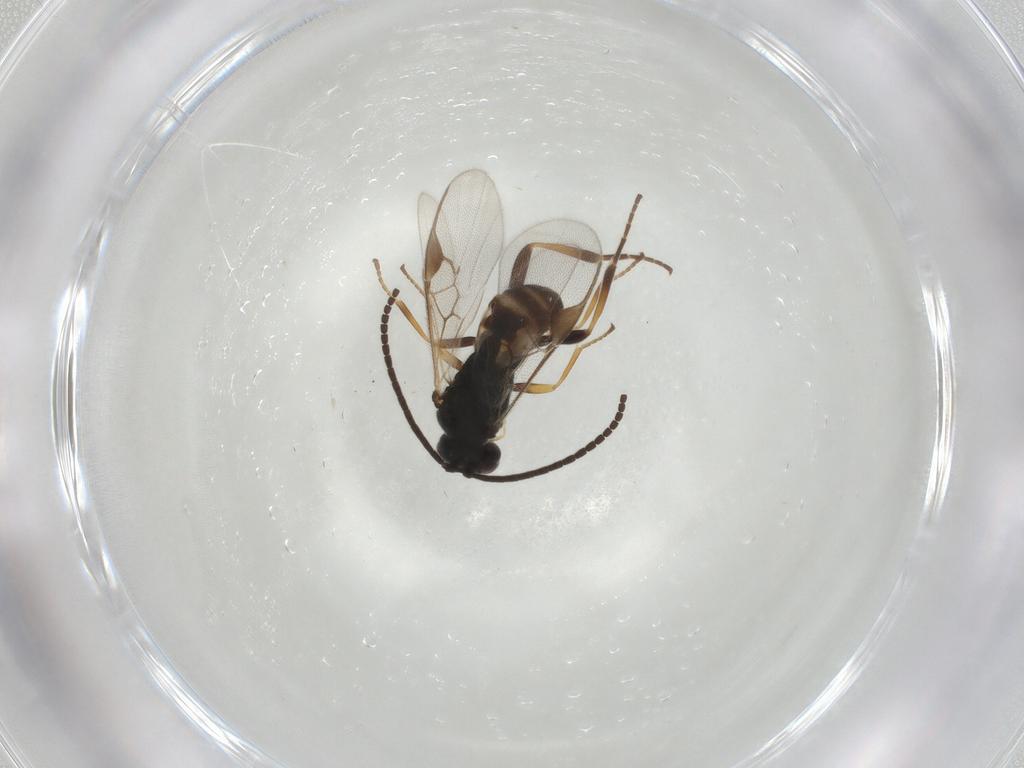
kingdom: Animalia
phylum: Arthropoda
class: Insecta
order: Hymenoptera
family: Braconidae
